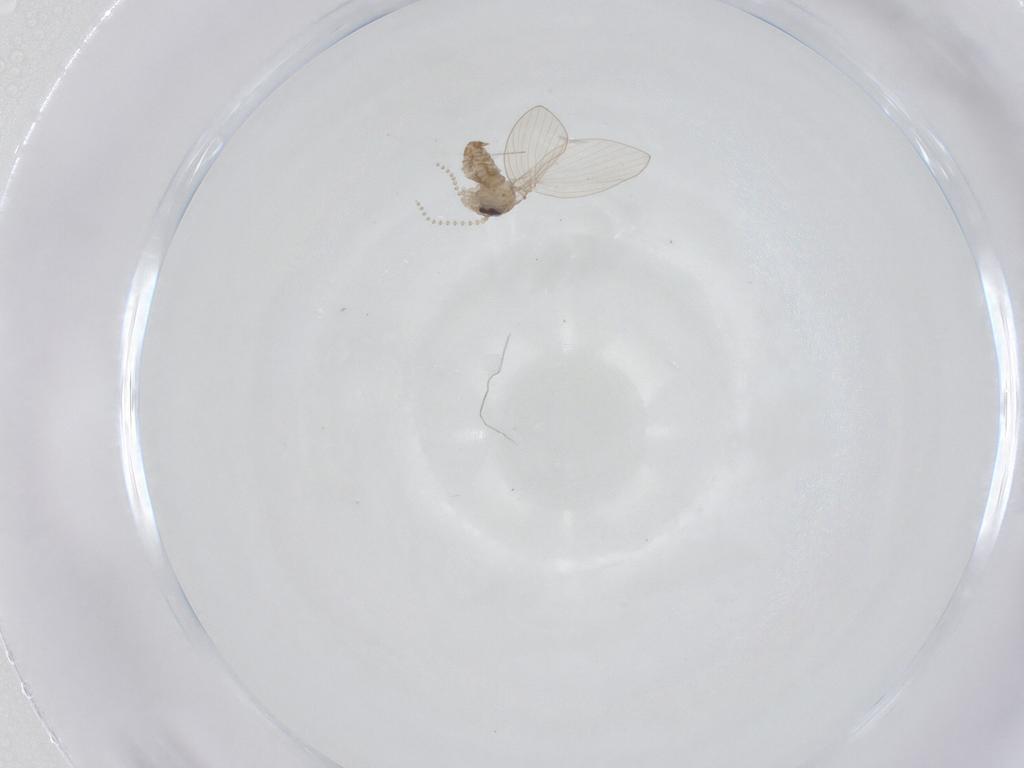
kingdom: Animalia
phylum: Arthropoda
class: Insecta
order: Diptera
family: Psychodidae
